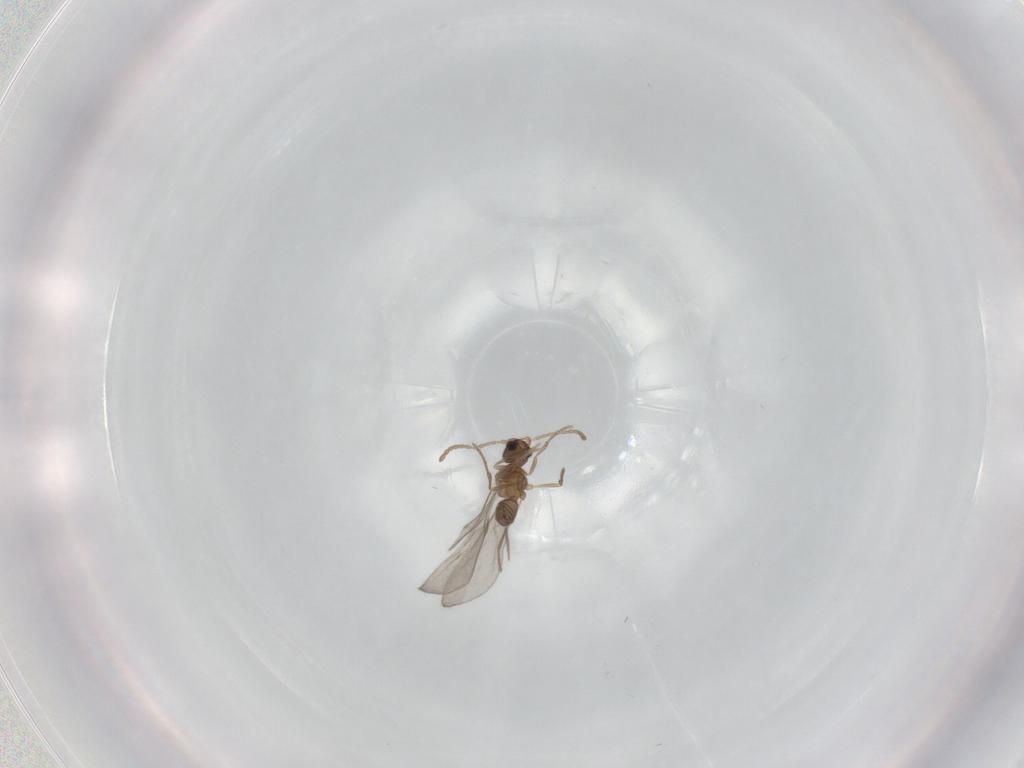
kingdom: Animalia
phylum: Arthropoda
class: Insecta
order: Hymenoptera
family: Formicidae
